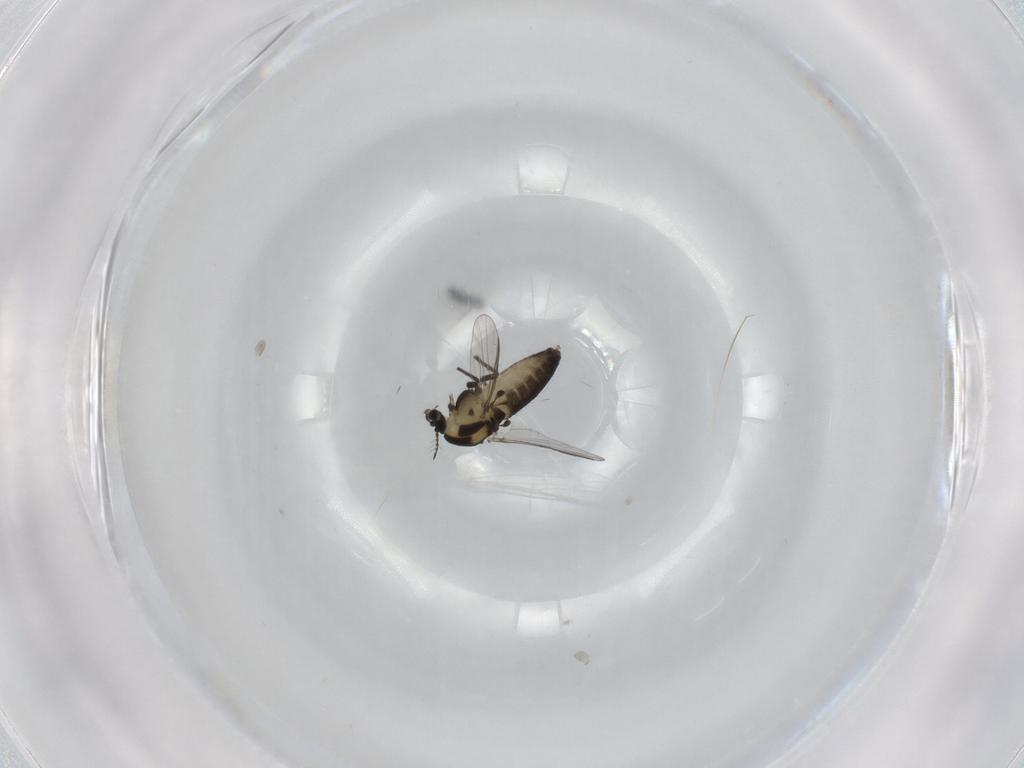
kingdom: Animalia
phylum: Arthropoda
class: Insecta
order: Diptera
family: Chironomidae
